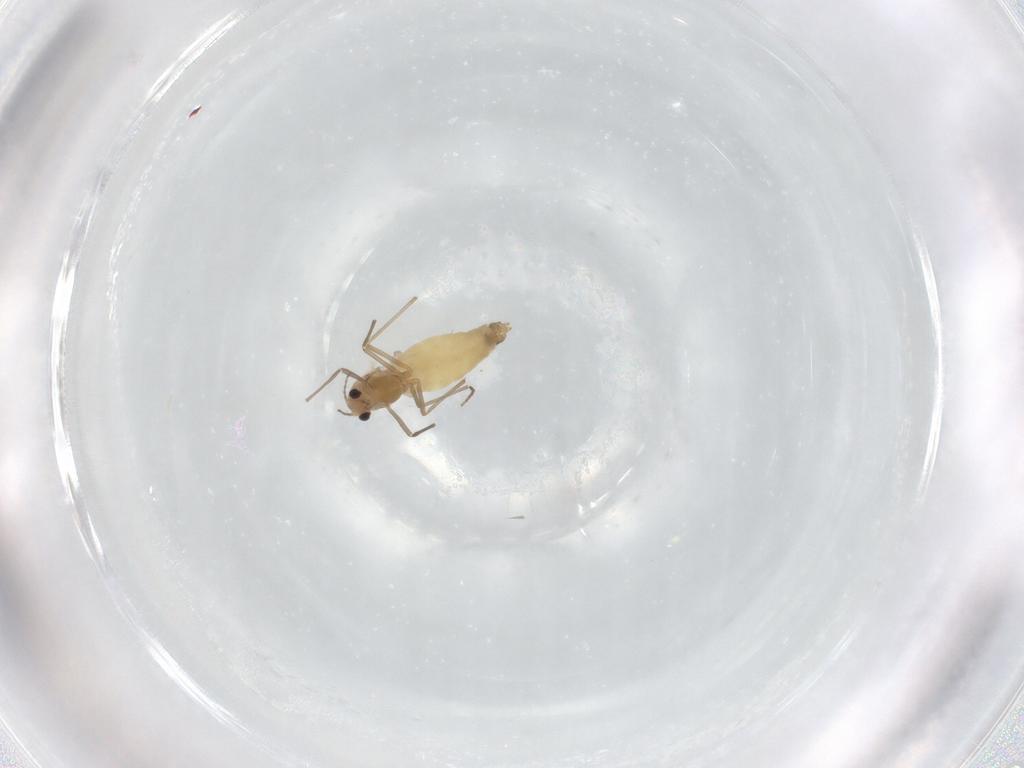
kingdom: Animalia
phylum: Arthropoda
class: Insecta
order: Diptera
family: Chironomidae
